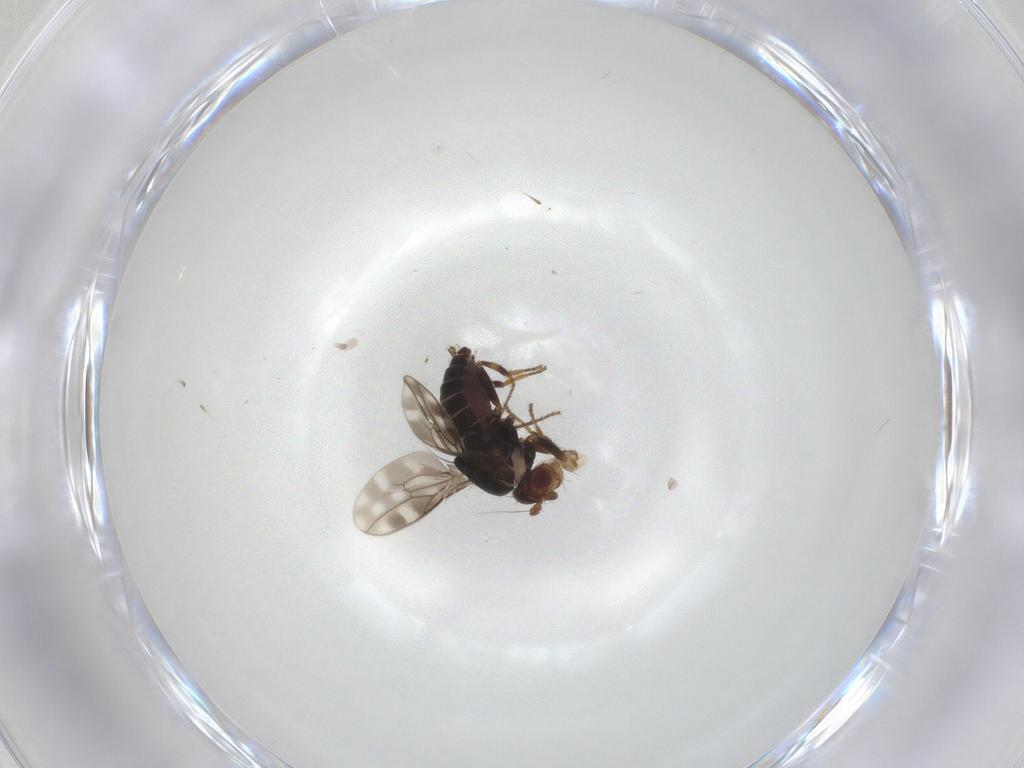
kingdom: Animalia
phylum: Arthropoda
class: Insecta
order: Diptera
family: Sphaeroceridae
